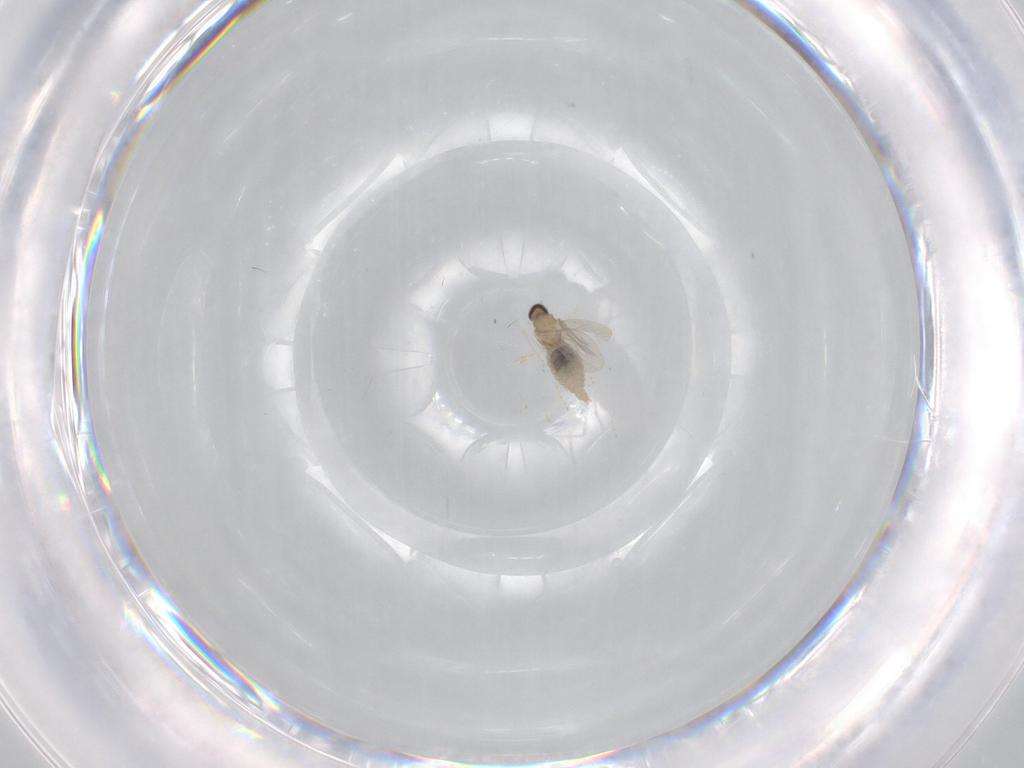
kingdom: Animalia
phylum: Arthropoda
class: Insecta
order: Diptera
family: Cecidomyiidae
